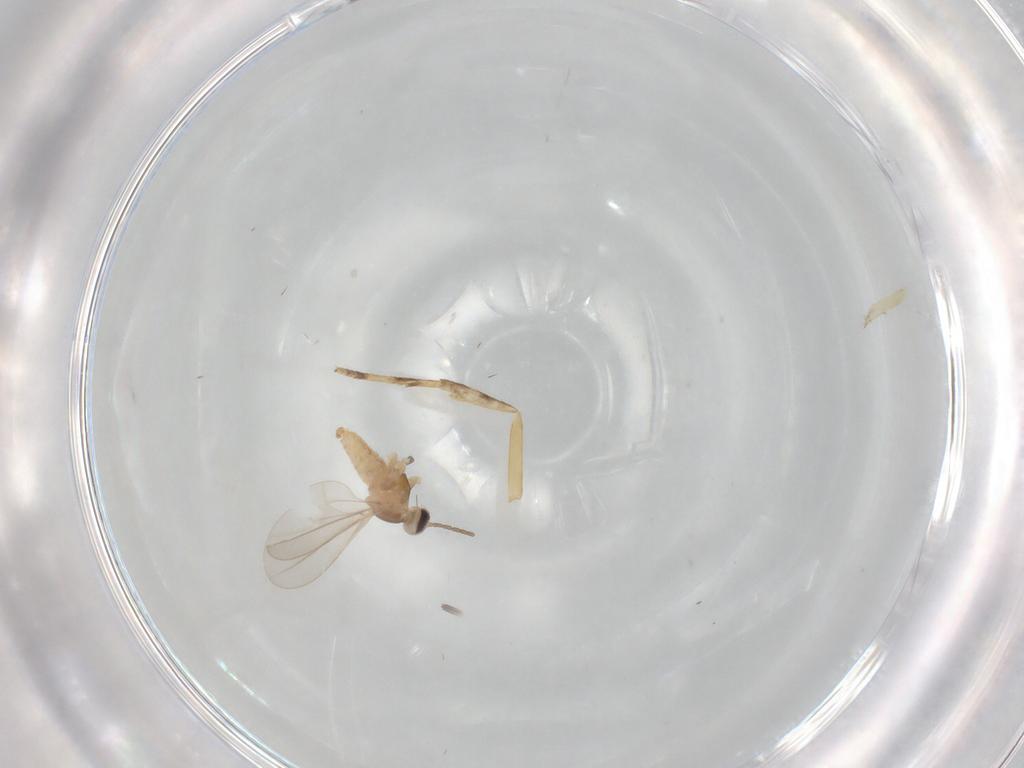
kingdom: Animalia
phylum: Arthropoda
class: Insecta
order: Diptera
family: Cecidomyiidae
